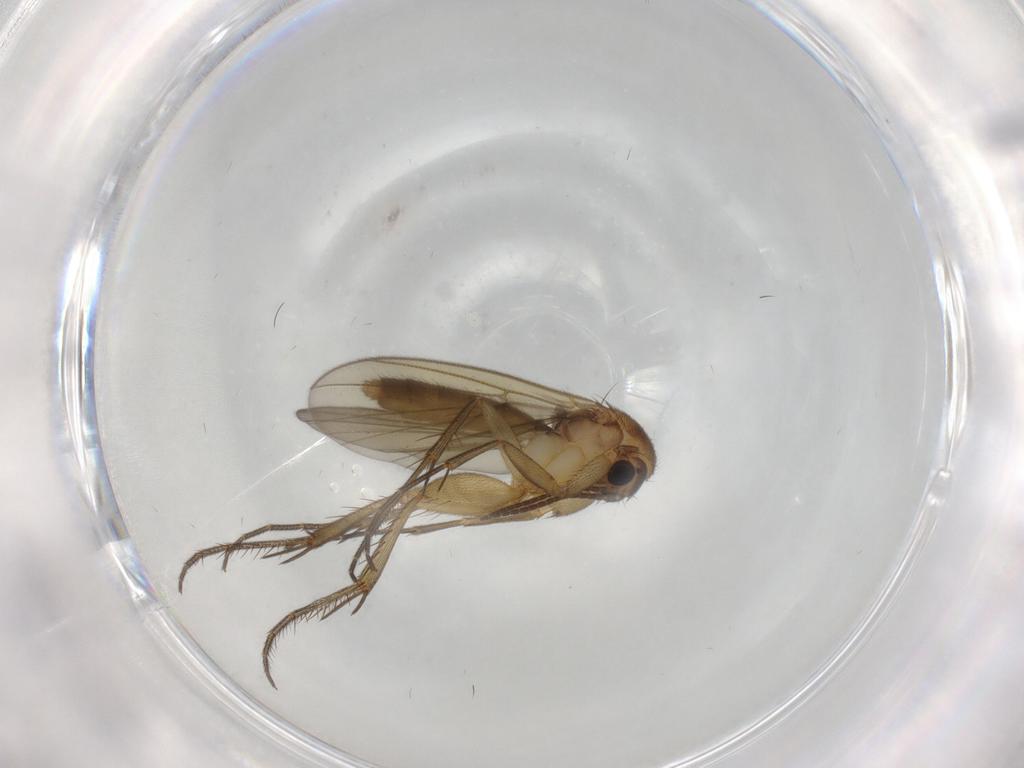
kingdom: Animalia
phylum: Arthropoda
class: Insecta
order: Diptera
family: Mycetophilidae
